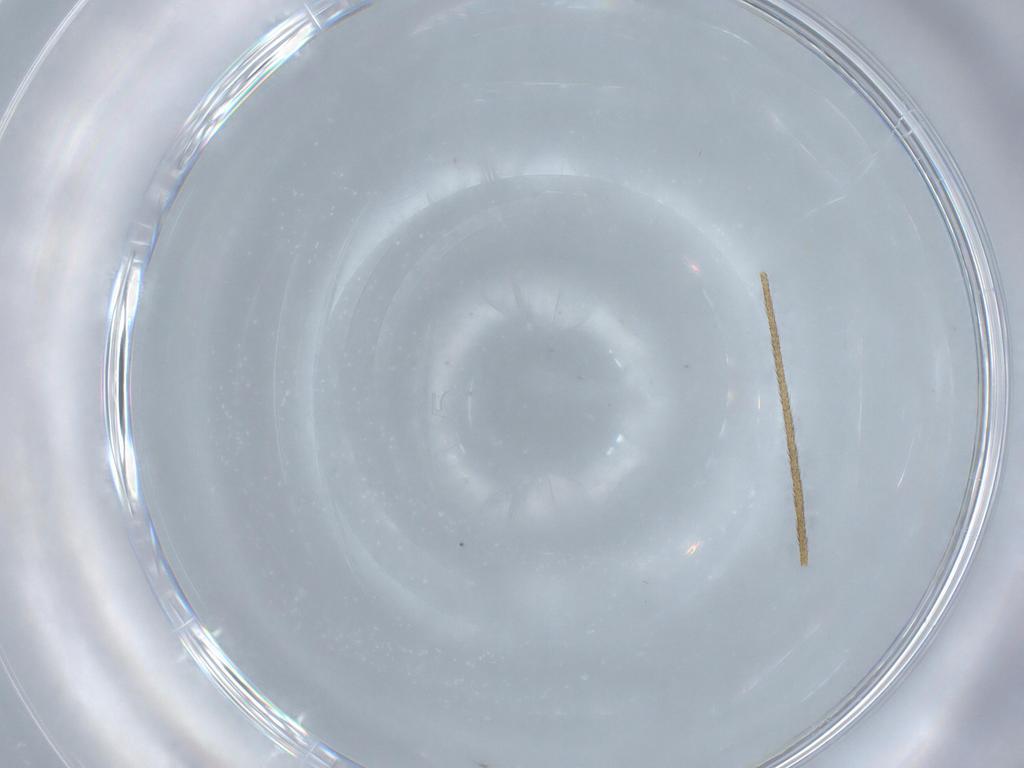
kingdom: Animalia
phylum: Arthropoda
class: Insecta
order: Diptera
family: Limoniidae
